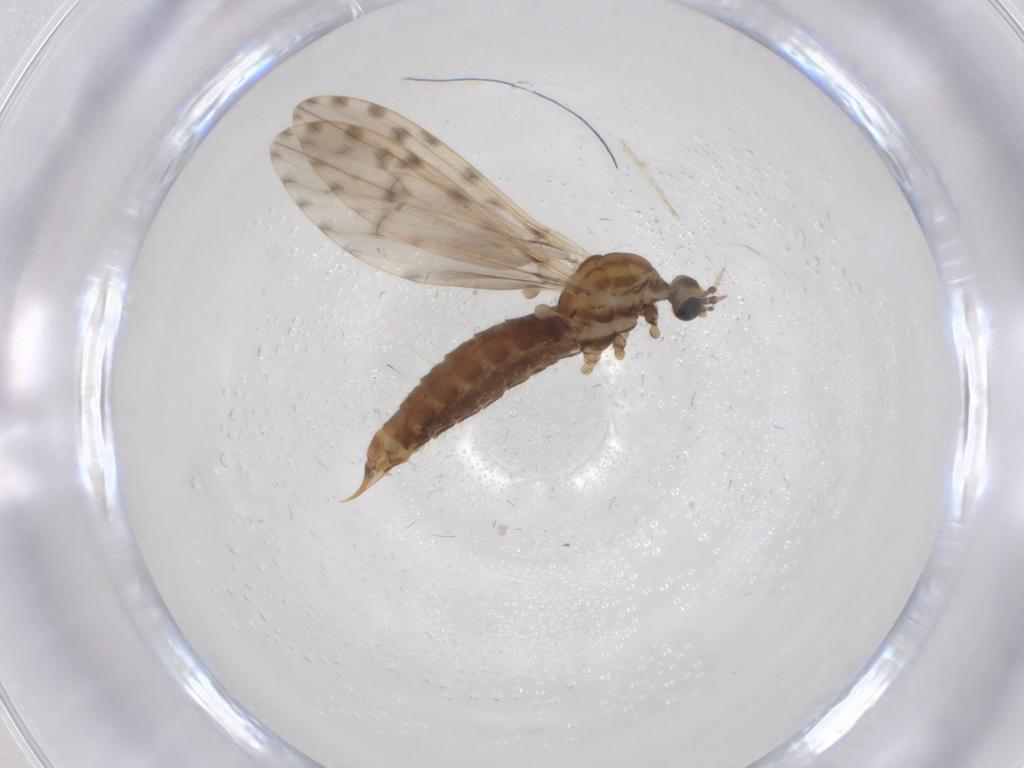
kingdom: Animalia
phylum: Arthropoda
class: Insecta
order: Diptera
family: Limoniidae
